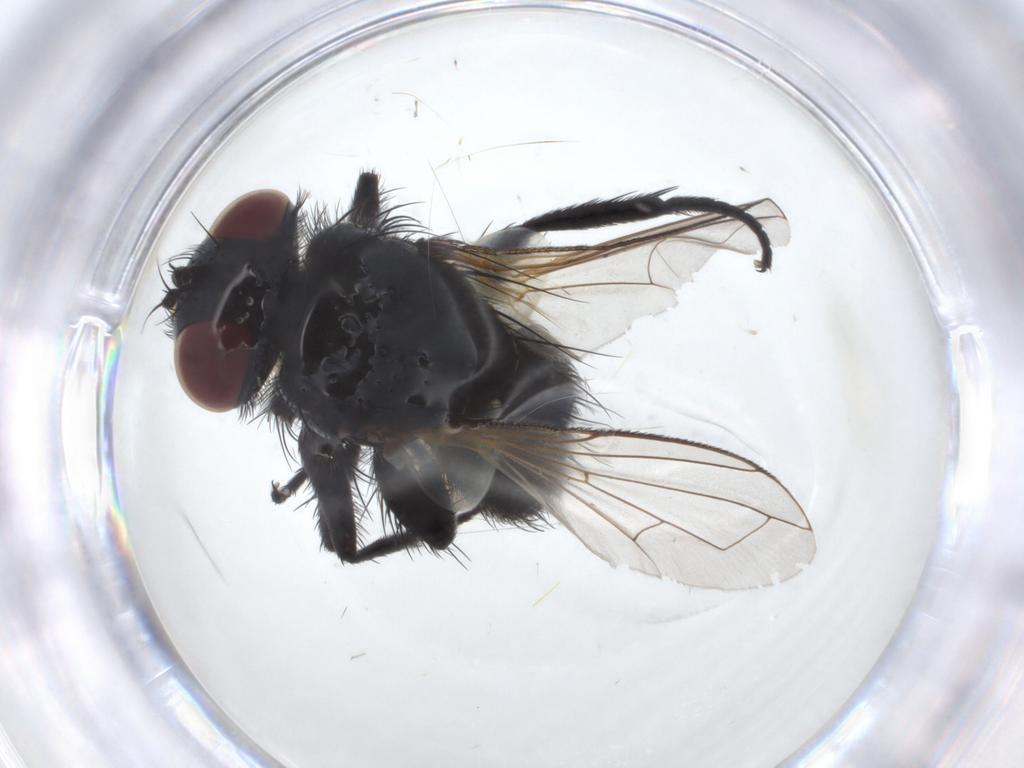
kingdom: Animalia
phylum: Arthropoda
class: Insecta
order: Diptera
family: Tachinidae
